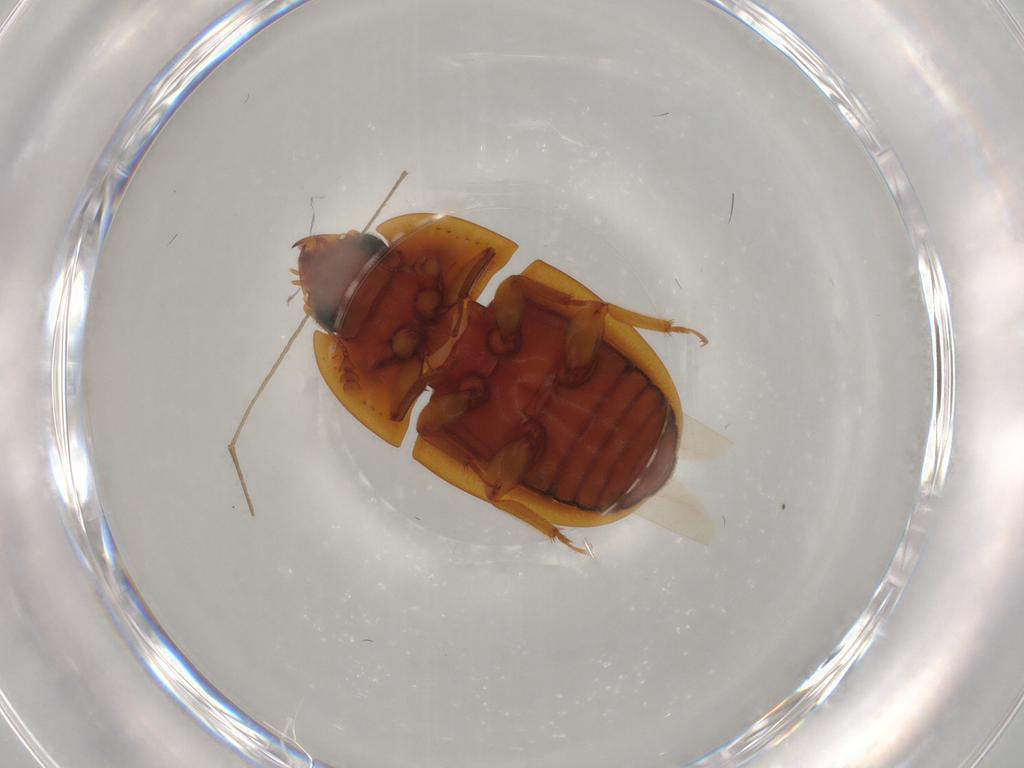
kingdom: Animalia
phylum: Arthropoda
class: Insecta
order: Coleoptera
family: Nitidulidae
